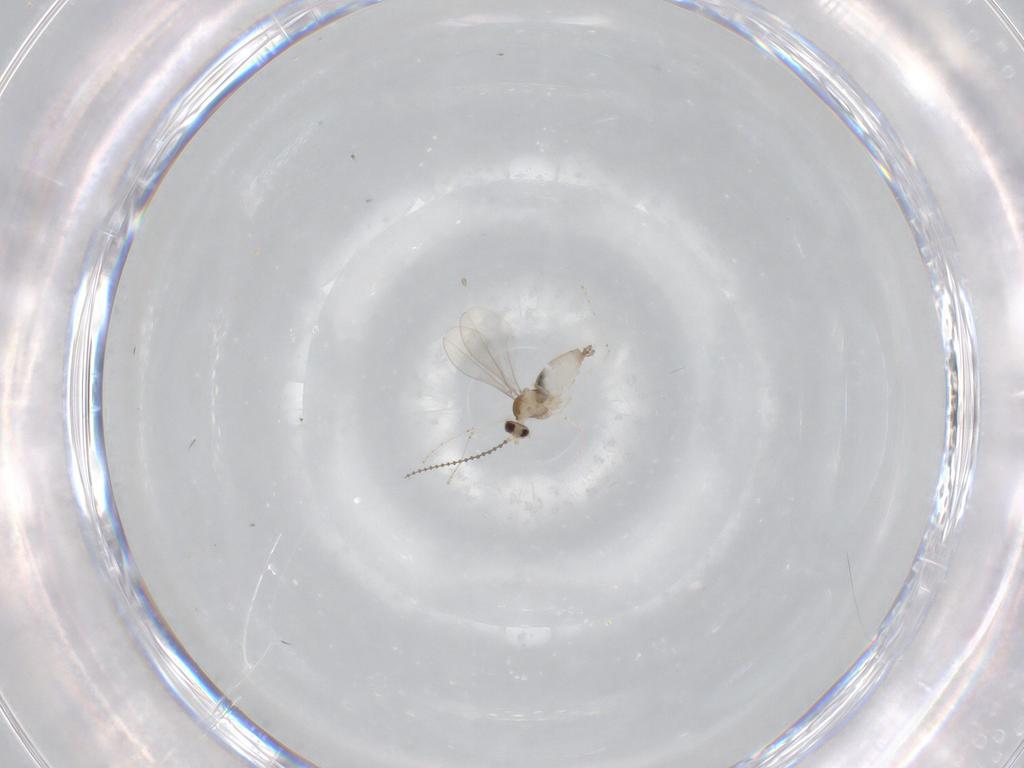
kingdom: Animalia
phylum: Arthropoda
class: Insecta
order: Diptera
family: Cecidomyiidae
